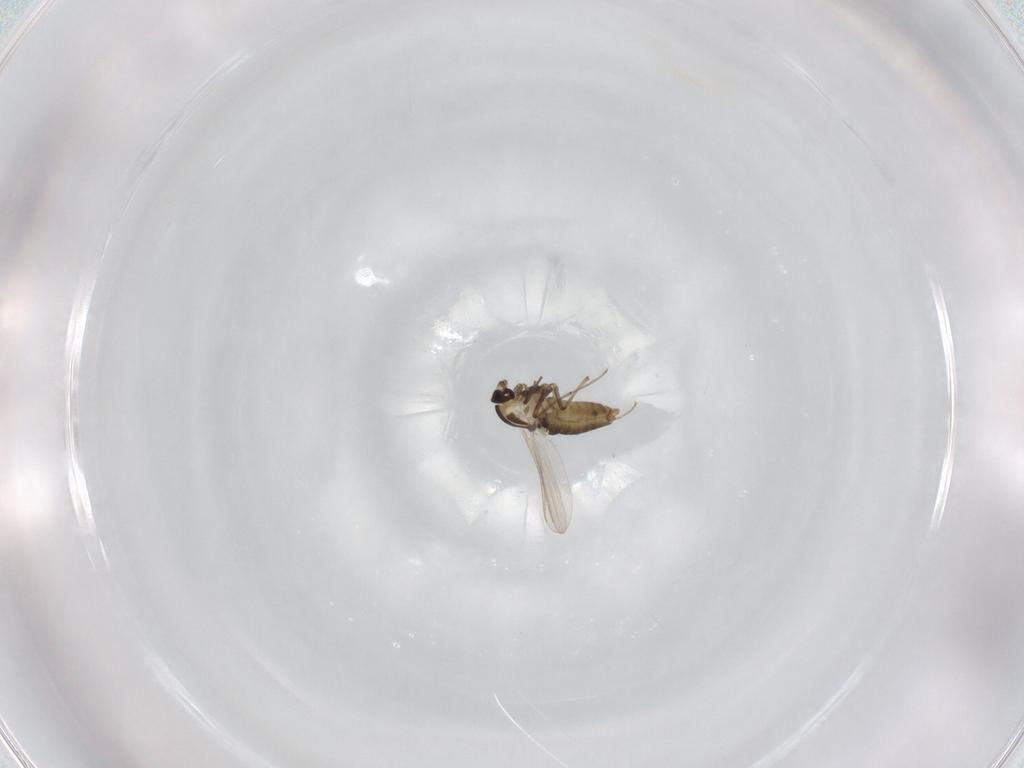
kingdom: Animalia
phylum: Arthropoda
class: Insecta
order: Diptera
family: Chironomidae
